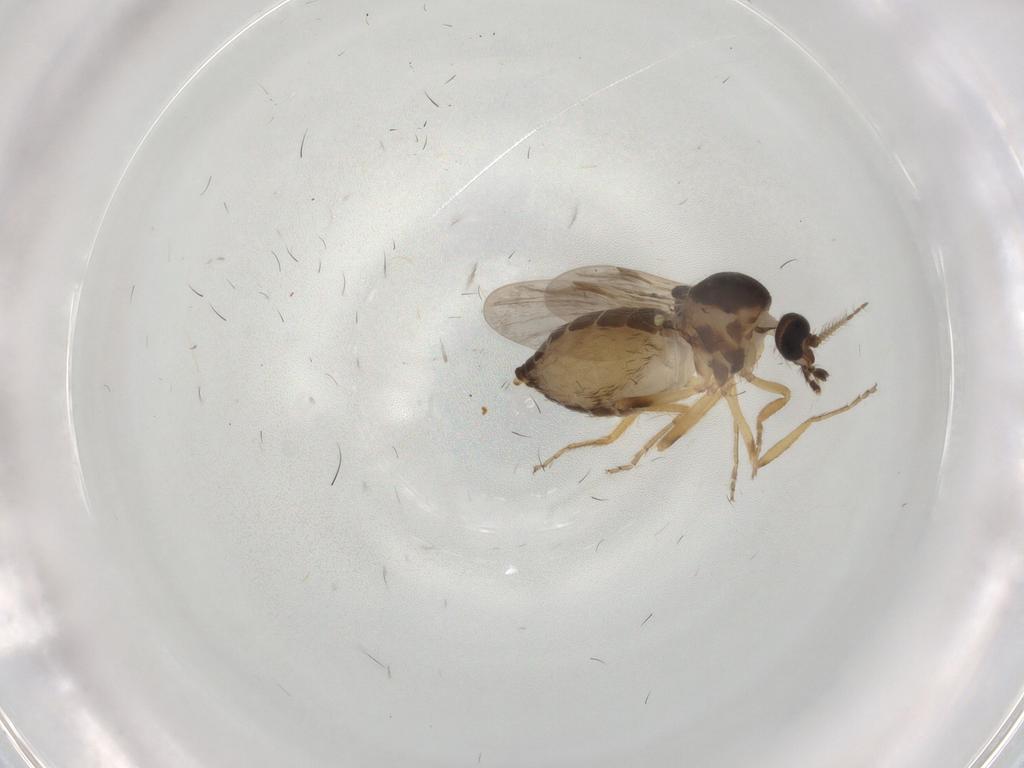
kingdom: Animalia
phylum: Arthropoda
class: Insecta
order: Diptera
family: Ceratopogonidae
